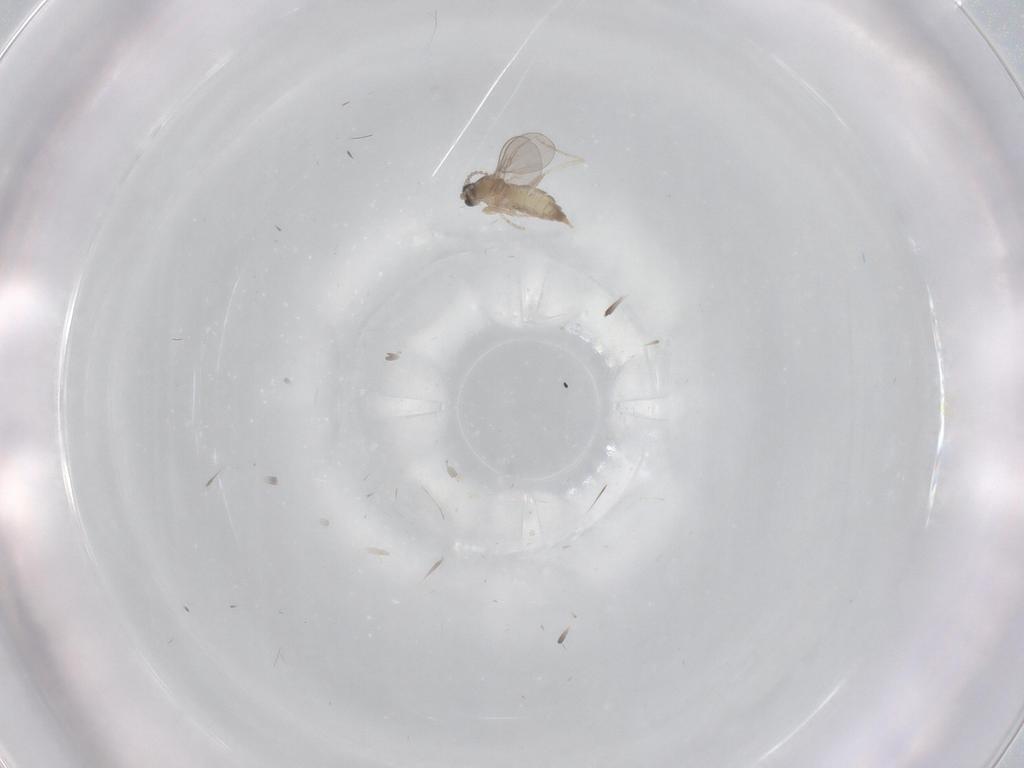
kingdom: Animalia
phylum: Arthropoda
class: Insecta
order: Diptera
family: Cecidomyiidae
